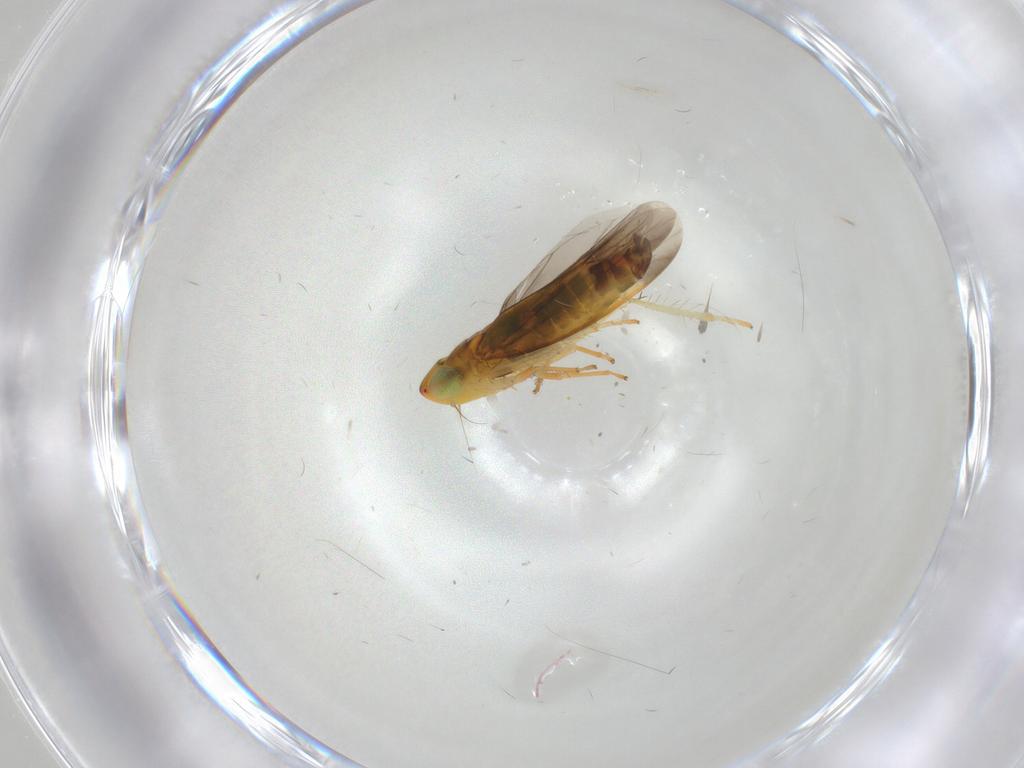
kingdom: Animalia
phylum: Arthropoda
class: Insecta
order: Hemiptera
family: Cicadellidae
